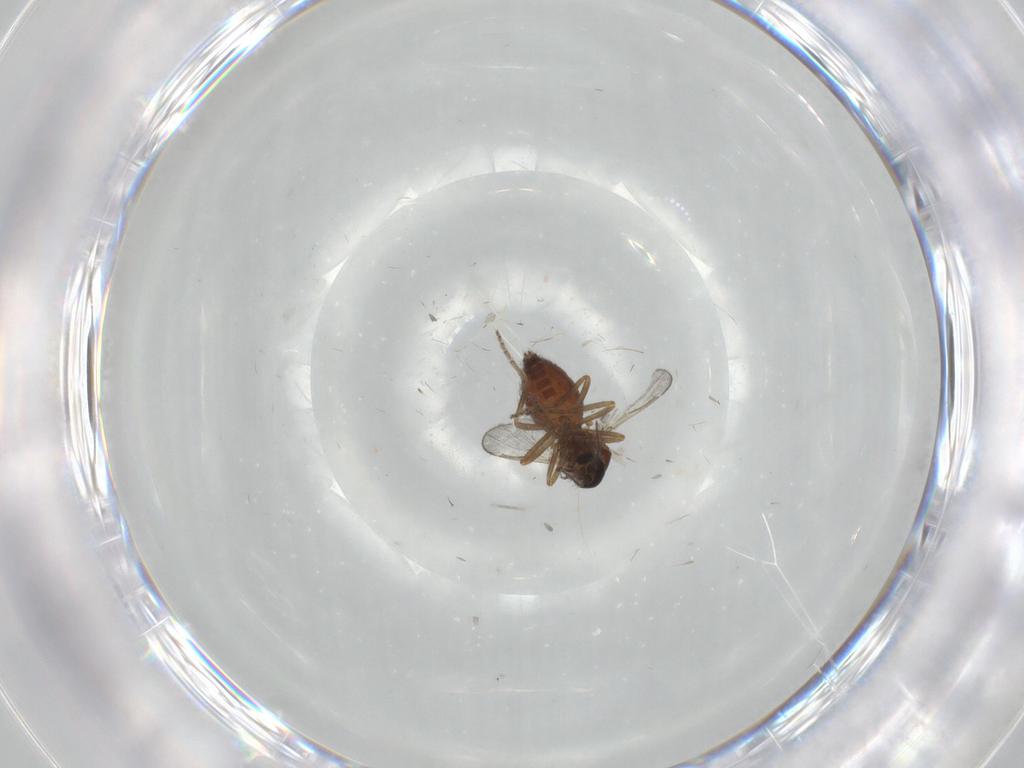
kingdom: Animalia
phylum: Arthropoda
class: Insecta
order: Diptera
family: Ceratopogonidae
